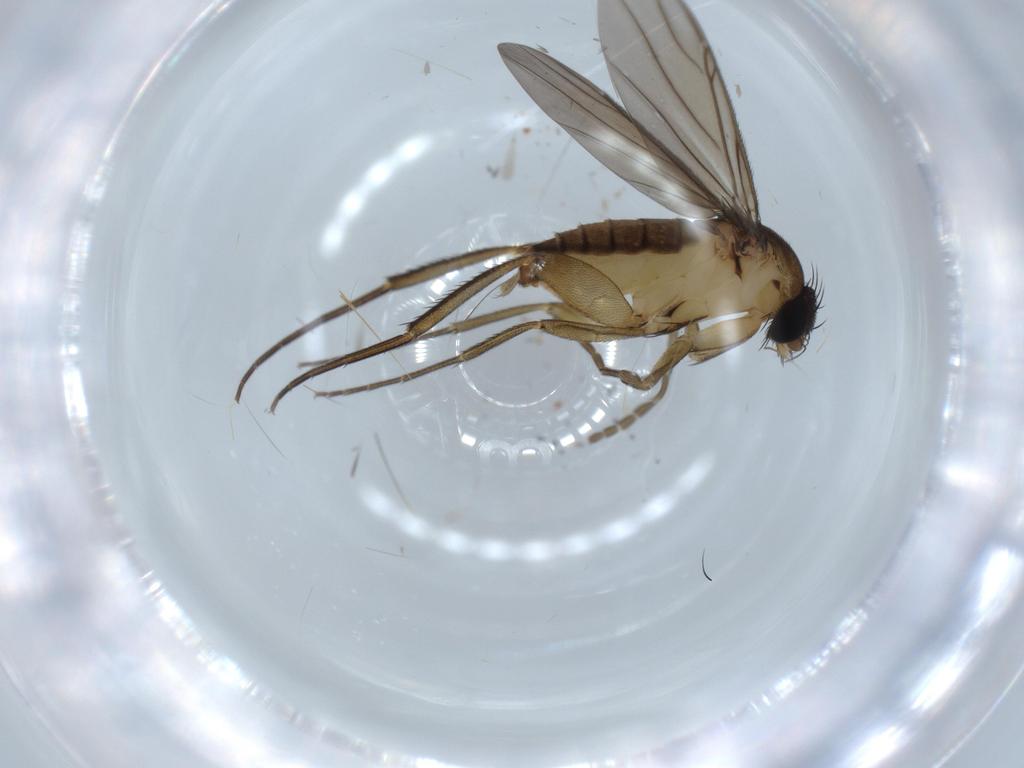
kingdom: Animalia
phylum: Arthropoda
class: Insecta
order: Diptera
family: Phoridae
